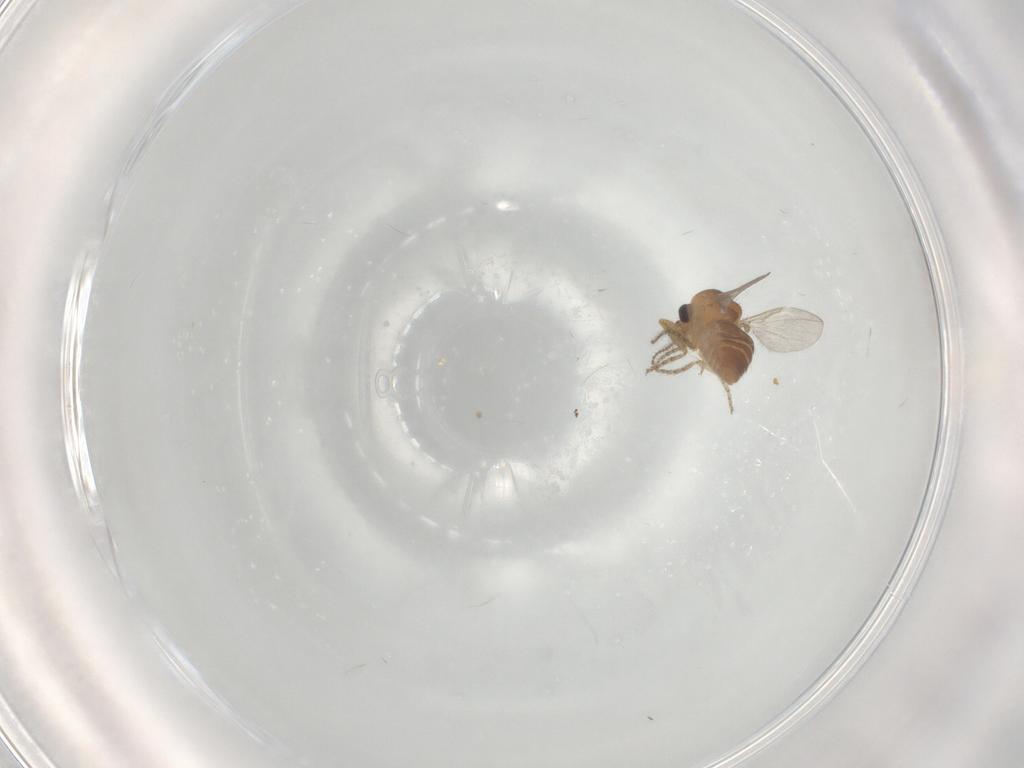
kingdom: Animalia
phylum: Arthropoda
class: Insecta
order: Diptera
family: Ceratopogonidae
